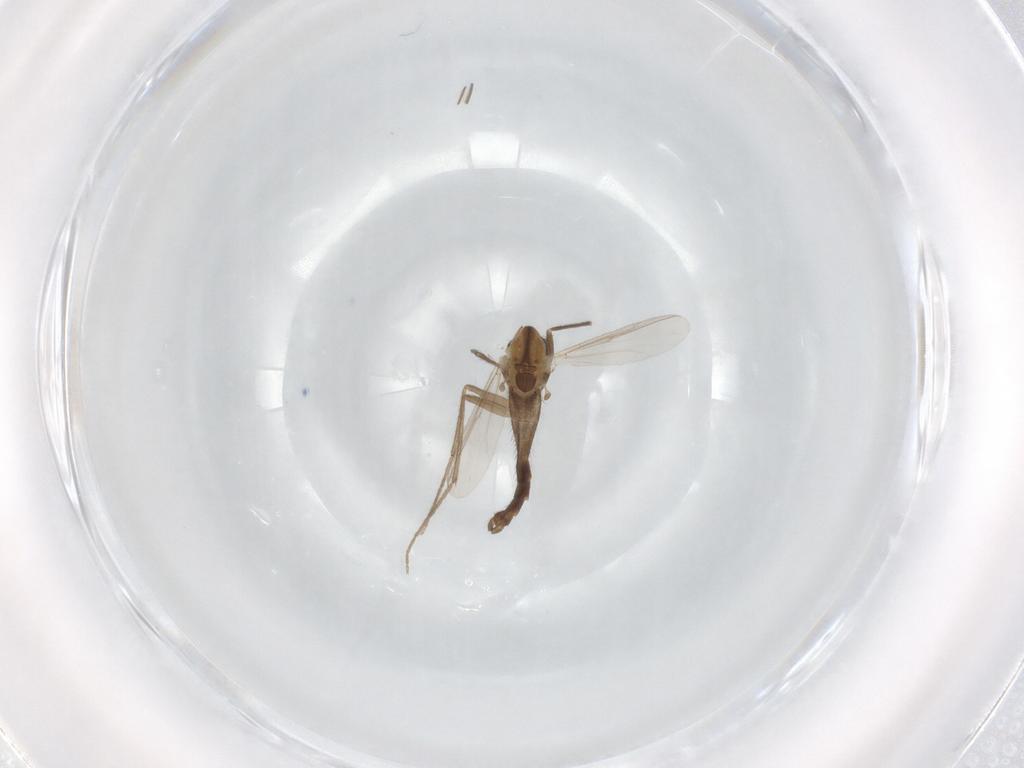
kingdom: Animalia
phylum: Arthropoda
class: Insecta
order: Diptera
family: Chironomidae
